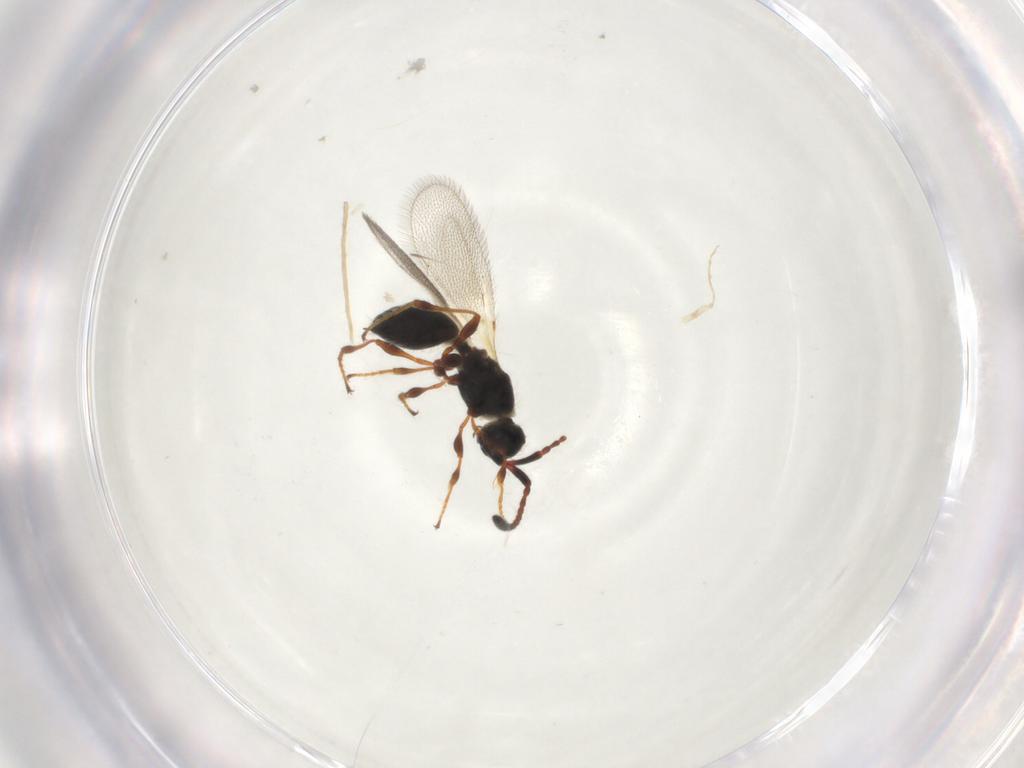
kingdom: Animalia
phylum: Arthropoda
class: Insecta
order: Hymenoptera
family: Diapriidae
